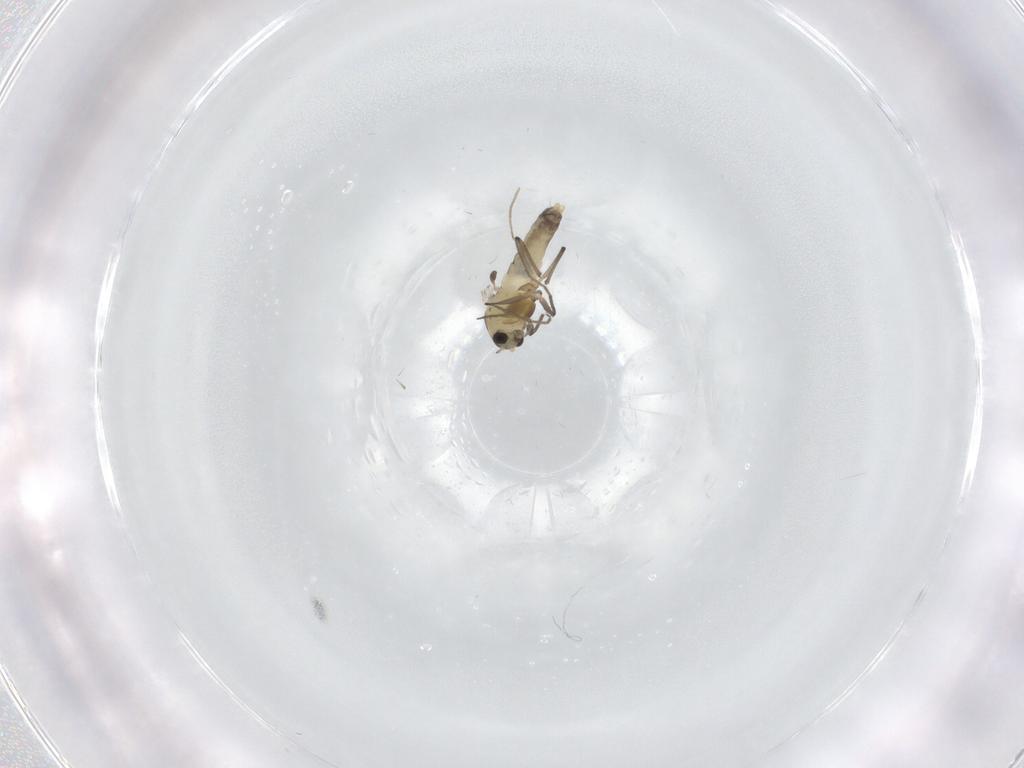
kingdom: Animalia
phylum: Arthropoda
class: Insecta
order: Diptera
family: Chironomidae
